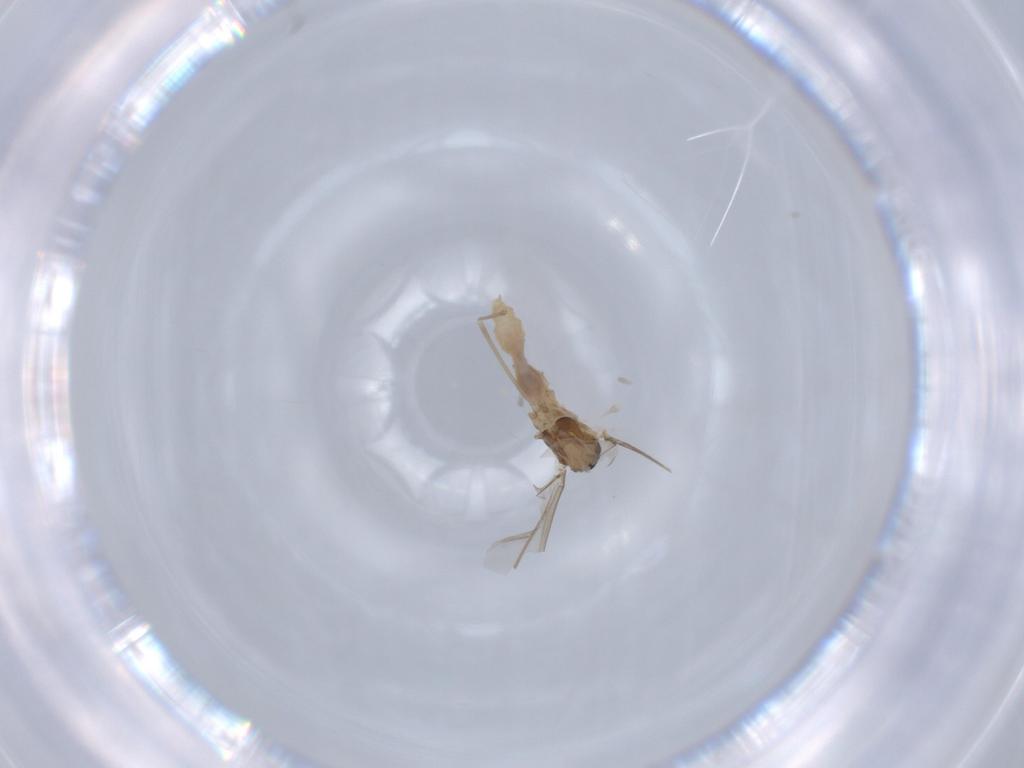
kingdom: Animalia
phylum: Arthropoda
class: Insecta
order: Diptera
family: Cecidomyiidae
